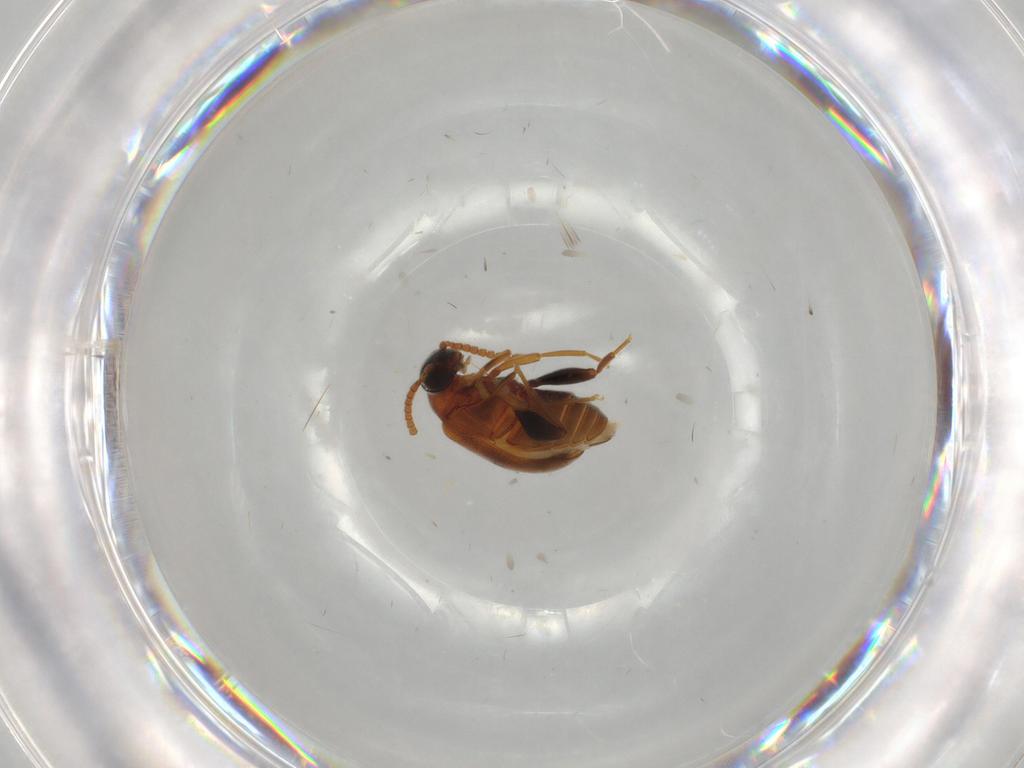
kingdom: Animalia
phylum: Arthropoda
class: Insecta
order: Coleoptera
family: Aderidae
